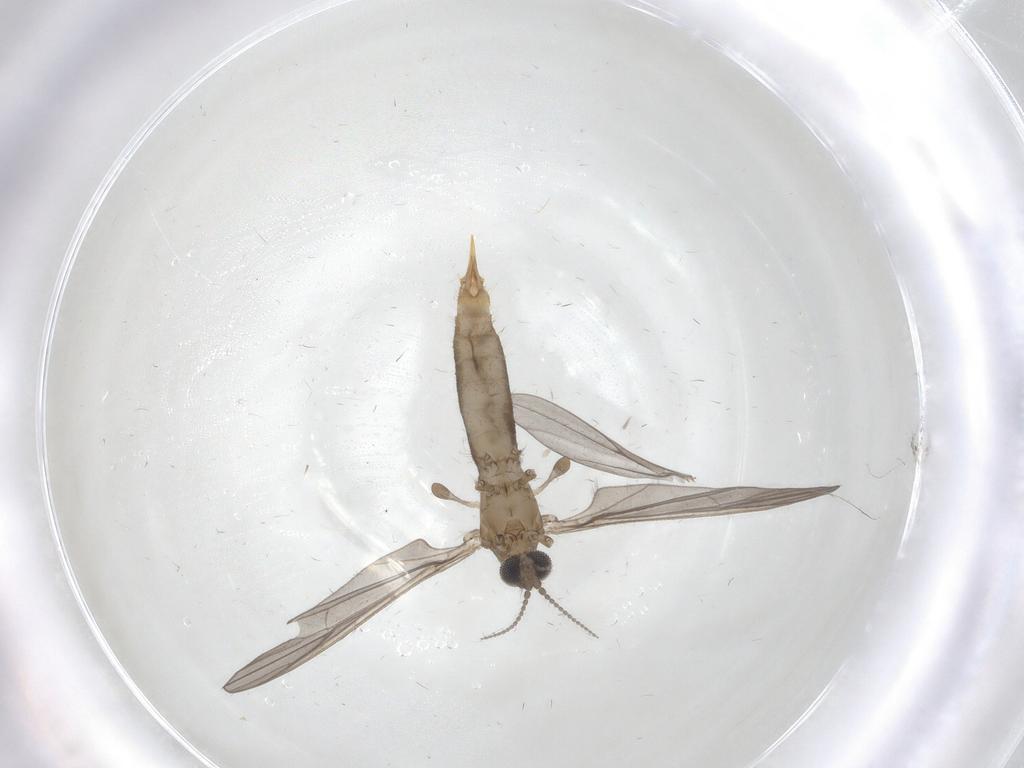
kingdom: Animalia
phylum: Arthropoda
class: Insecta
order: Diptera
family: Limoniidae
